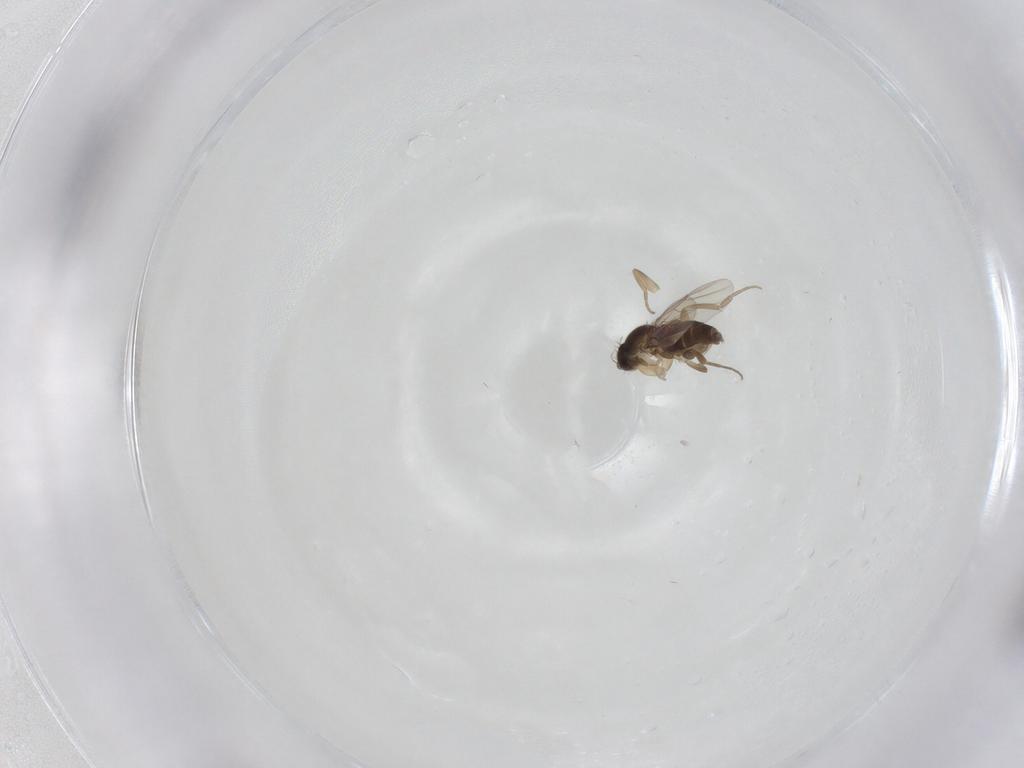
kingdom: Animalia
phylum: Arthropoda
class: Insecta
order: Diptera
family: Phoridae
